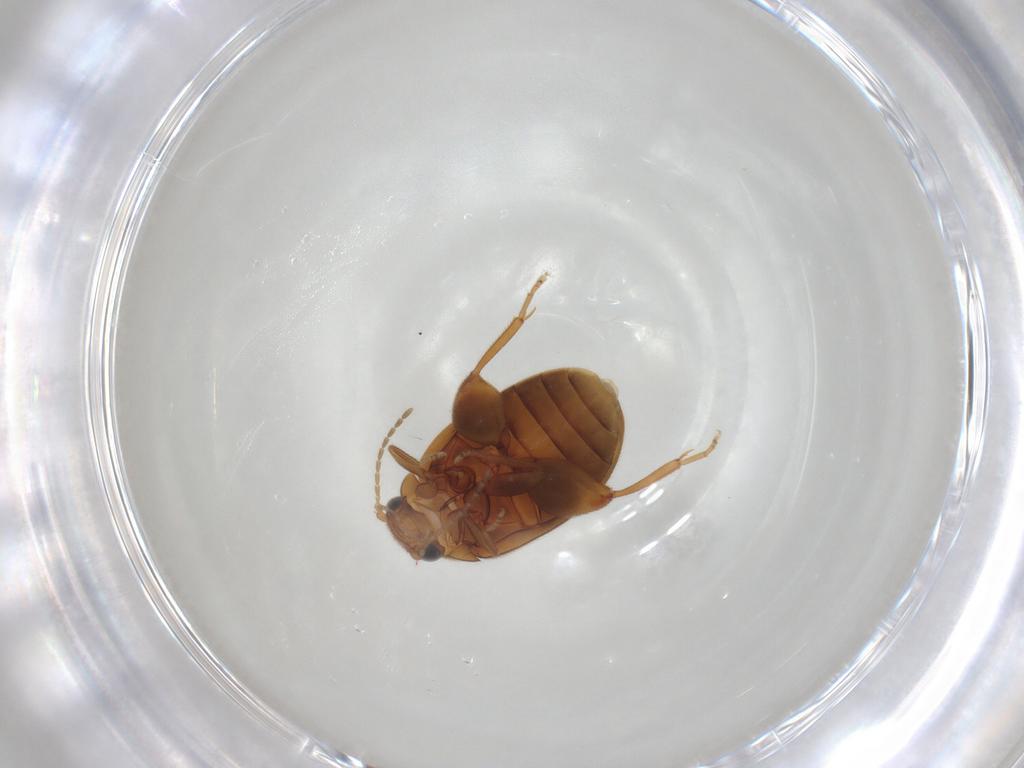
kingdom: Animalia
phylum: Arthropoda
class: Insecta
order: Coleoptera
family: Scirtidae
